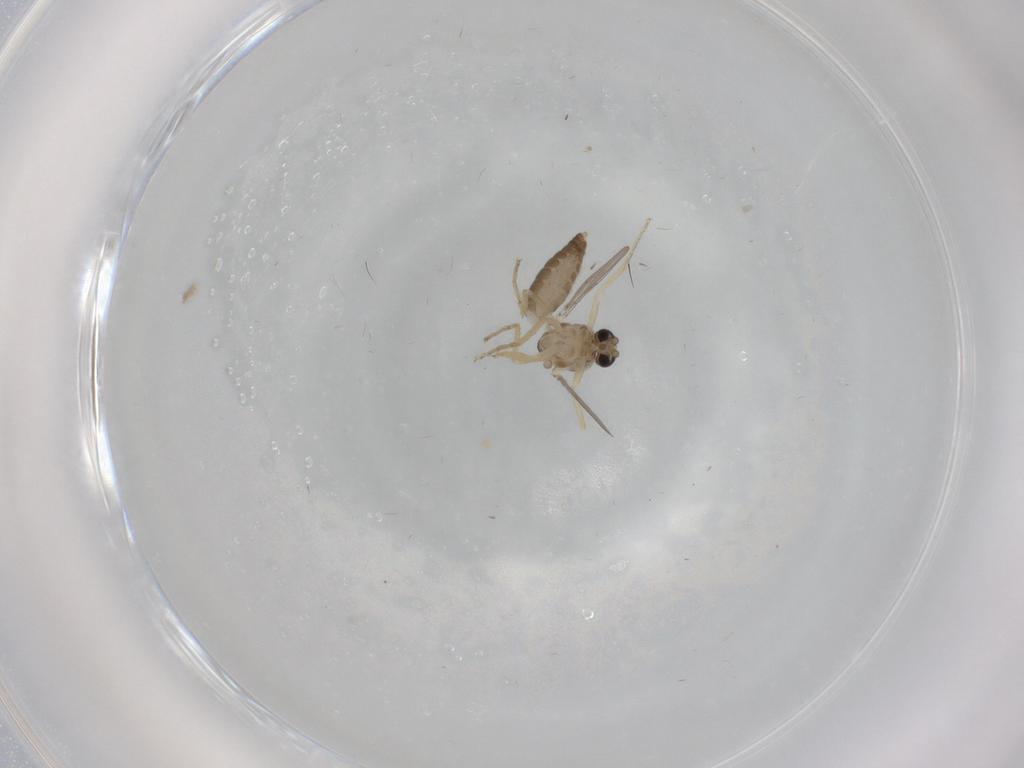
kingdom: Animalia
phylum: Arthropoda
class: Insecta
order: Diptera
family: Ceratopogonidae
